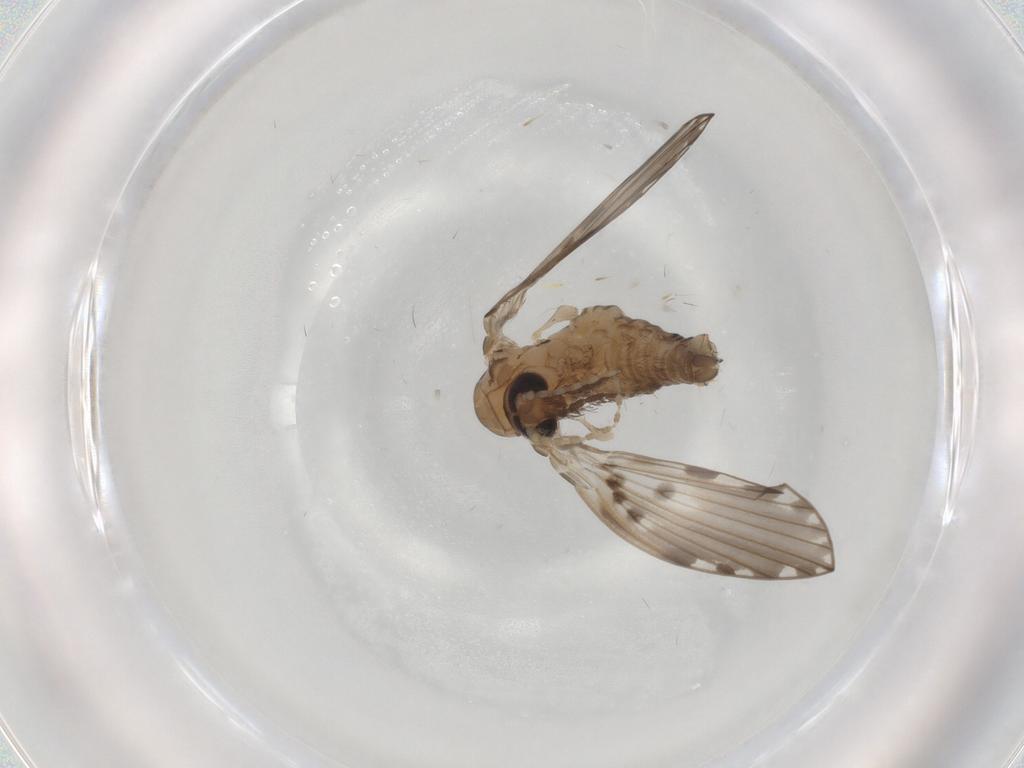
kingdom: Animalia
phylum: Arthropoda
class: Insecta
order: Diptera
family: Psychodidae
